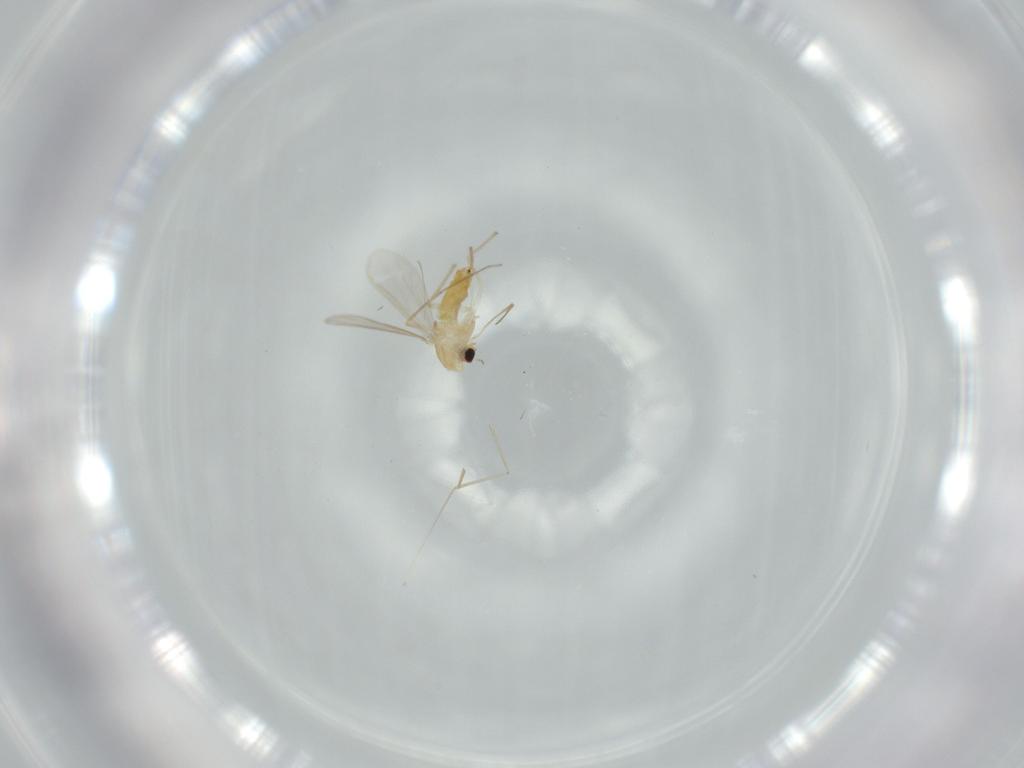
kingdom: Animalia
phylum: Arthropoda
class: Insecta
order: Diptera
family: Cecidomyiidae
